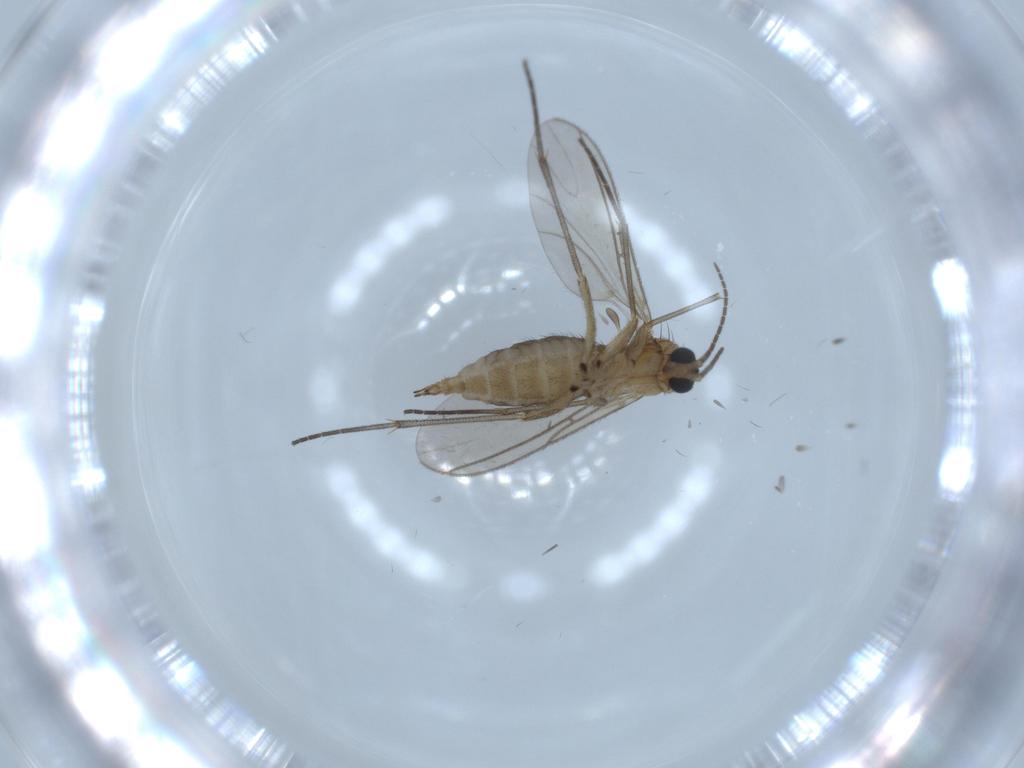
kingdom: Animalia
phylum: Arthropoda
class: Insecta
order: Diptera
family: Sciaridae
